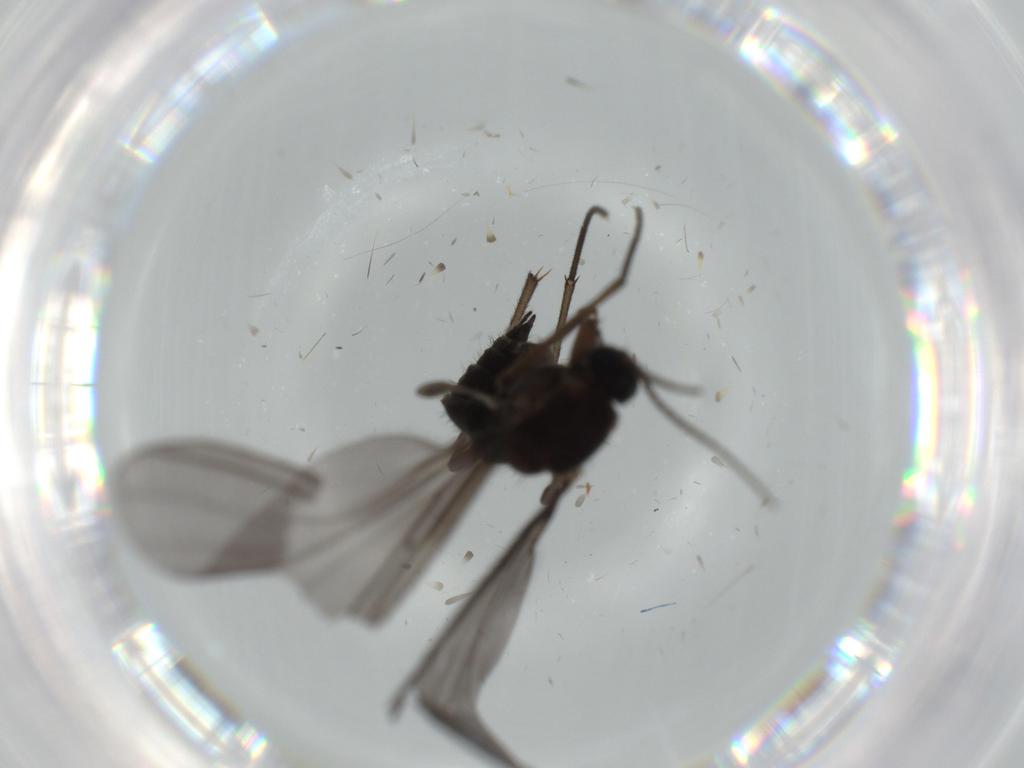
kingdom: Animalia
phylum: Arthropoda
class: Insecta
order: Diptera
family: Sciaridae
